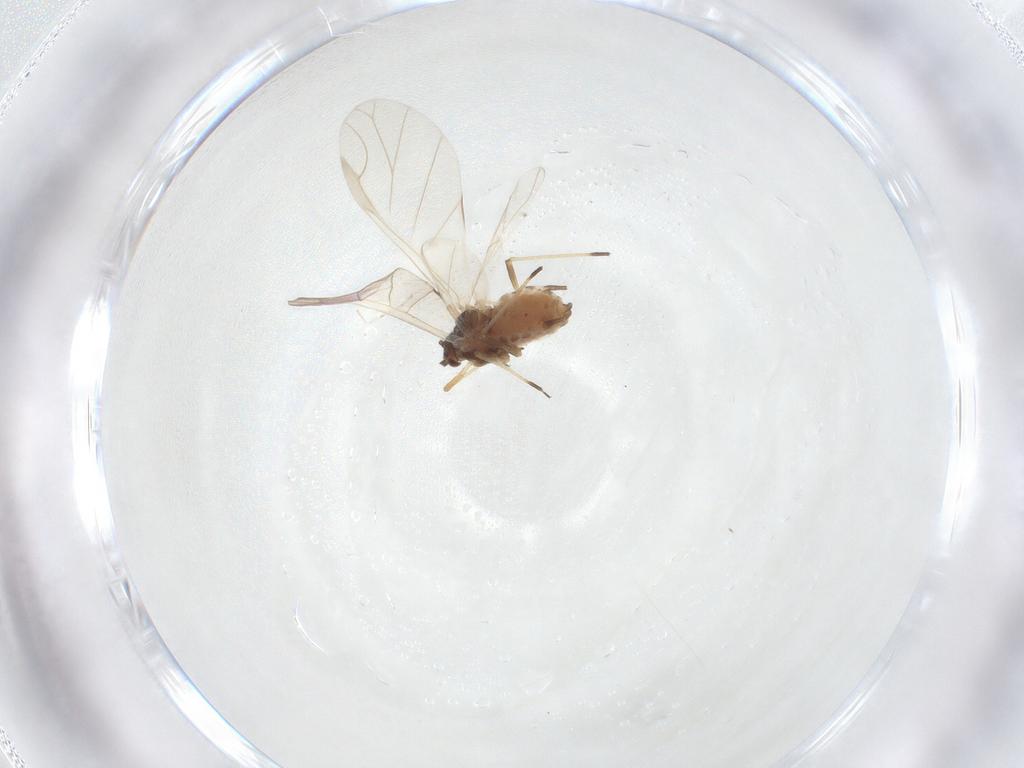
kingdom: Animalia
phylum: Arthropoda
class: Insecta
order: Hemiptera
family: Aphididae
